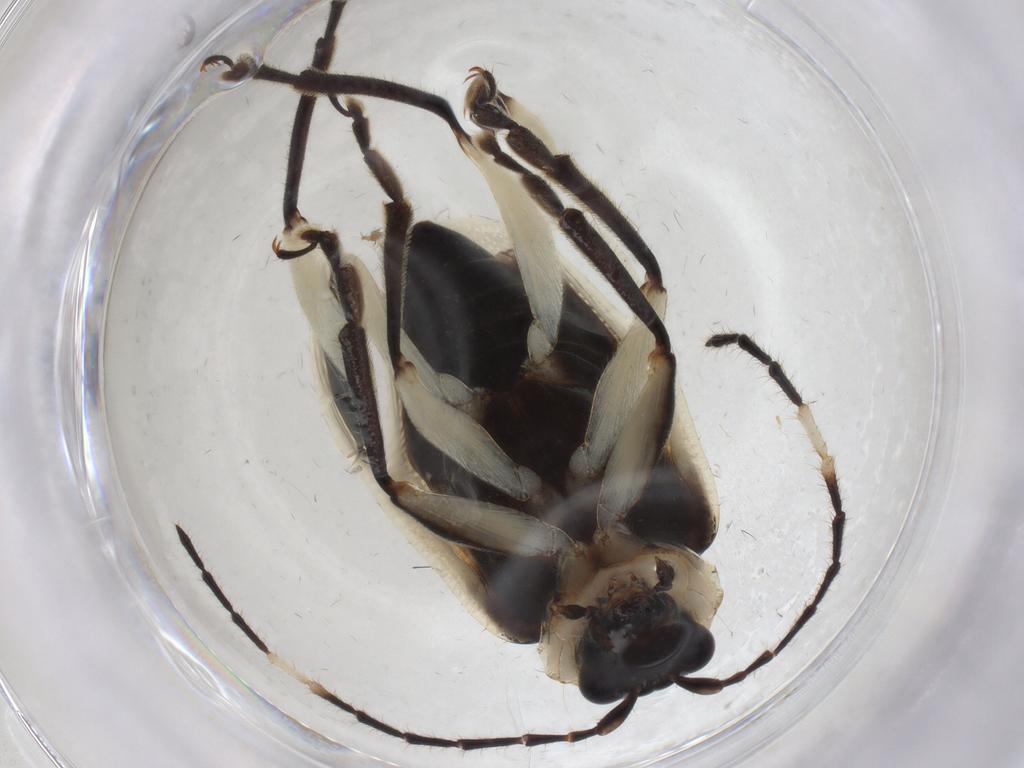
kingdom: Animalia
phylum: Arthropoda
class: Insecta
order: Coleoptera
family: Chrysomelidae
